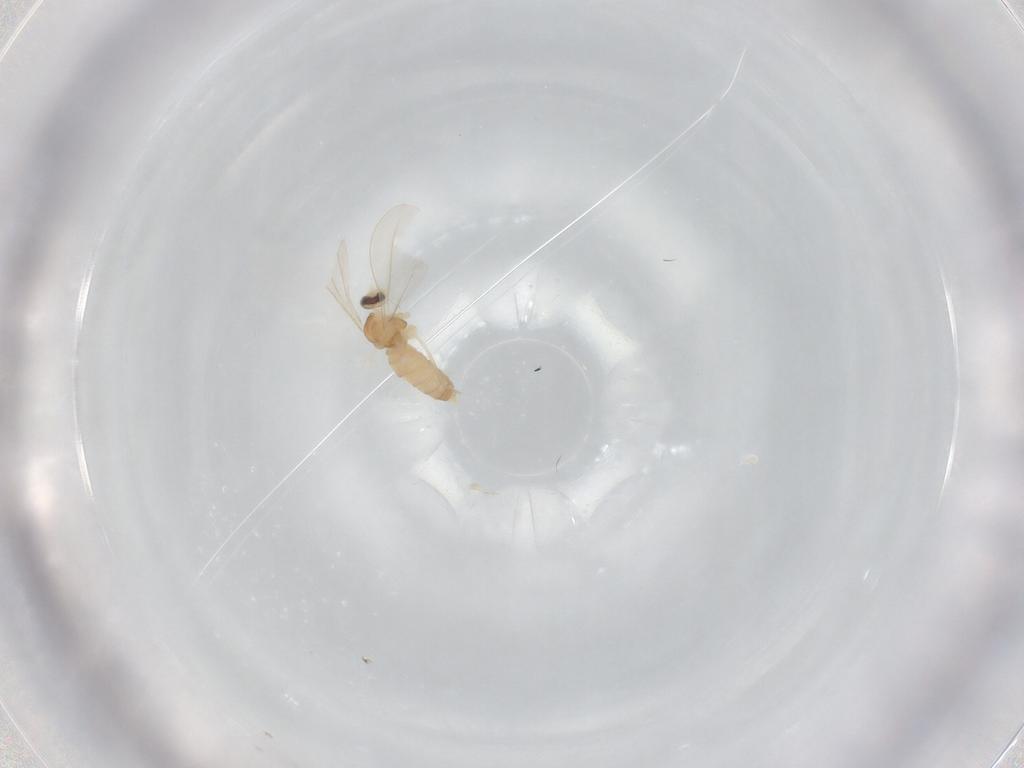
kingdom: Animalia
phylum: Arthropoda
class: Insecta
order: Diptera
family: Cecidomyiidae
